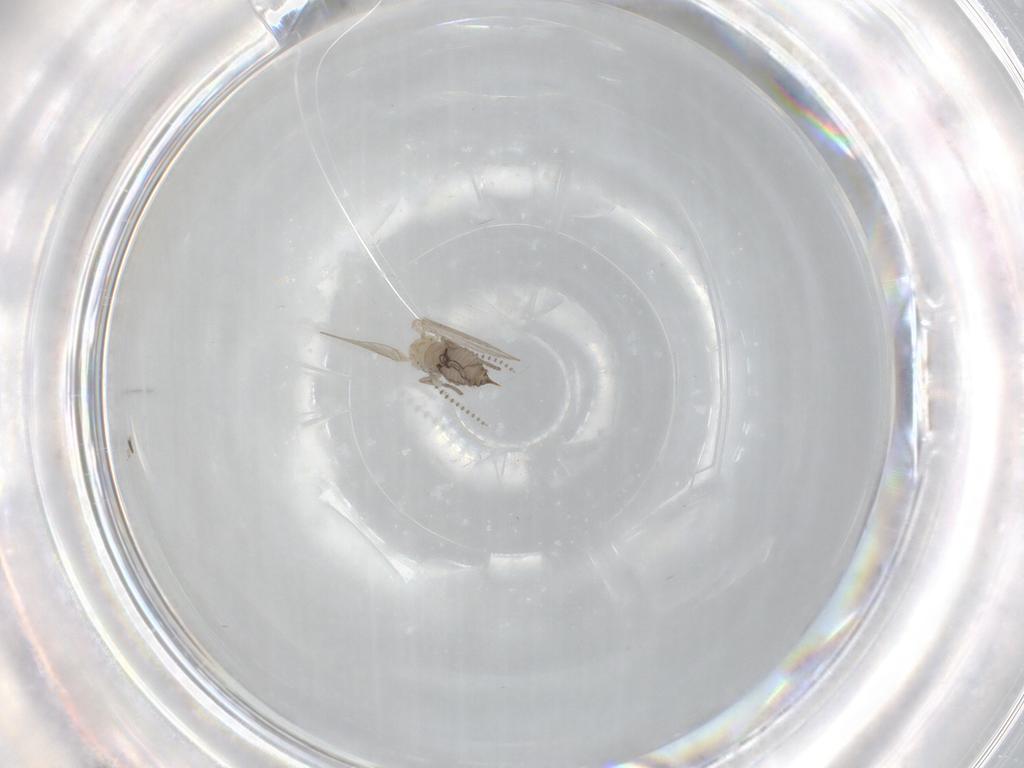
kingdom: Animalia
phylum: Arthropoda
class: Insecta
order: Diptera
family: Psychodidae
